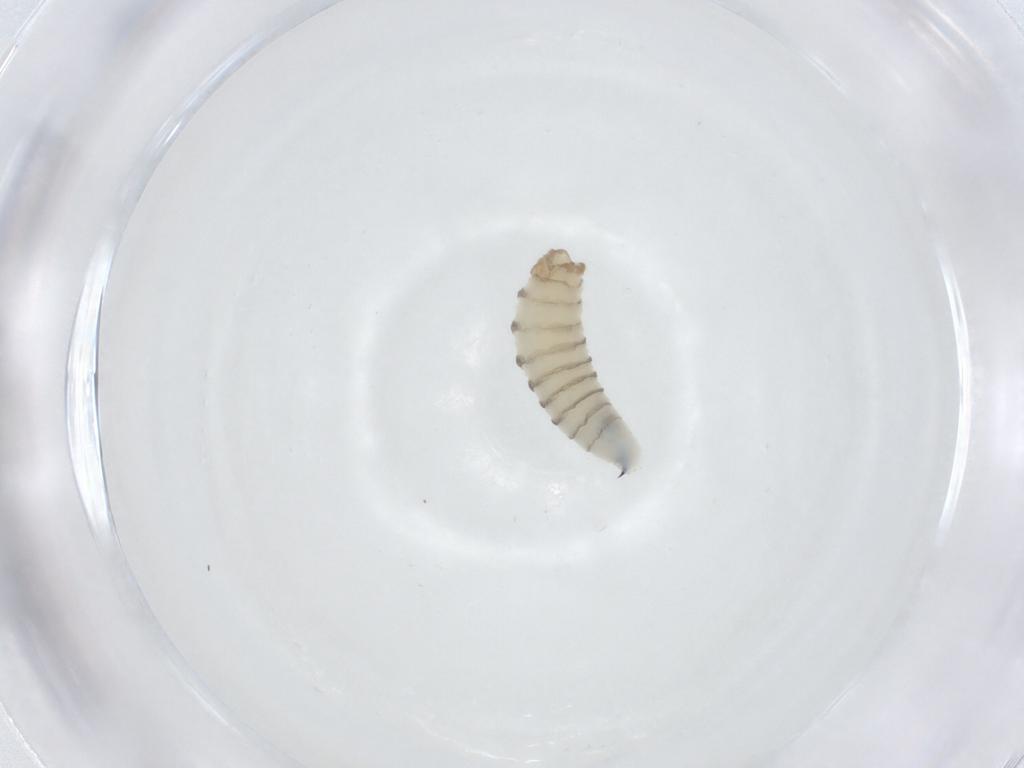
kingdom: Animalia
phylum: Arthropoda
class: Insecta
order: Diptera
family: Sarcophagidae
